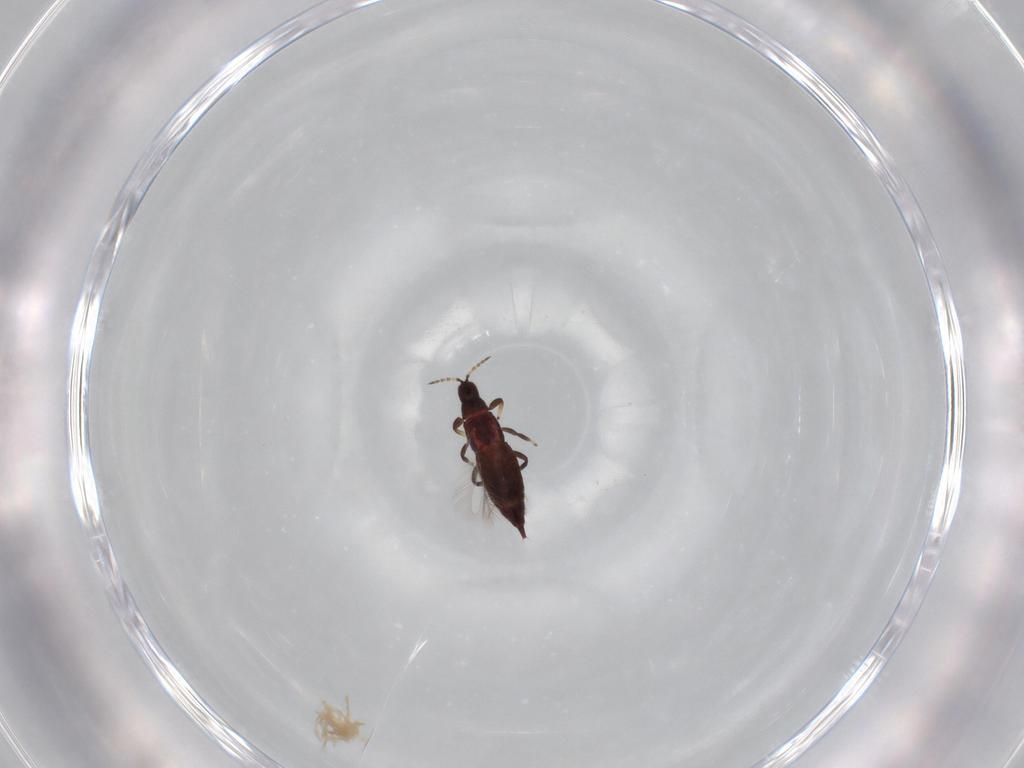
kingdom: Animalia
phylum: Arthropoda
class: Insecta
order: Thysanoptera
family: Phlaeothripidae
